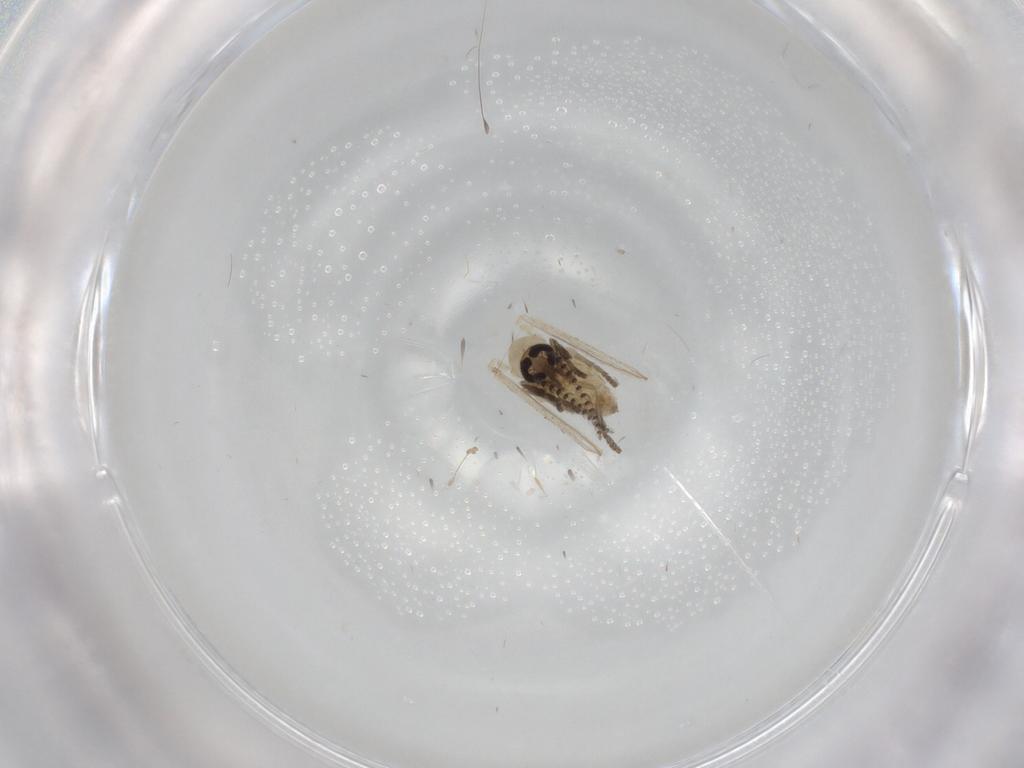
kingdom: Animalia
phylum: Arthropoda
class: Insecta
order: Diptera
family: Psychodidae
